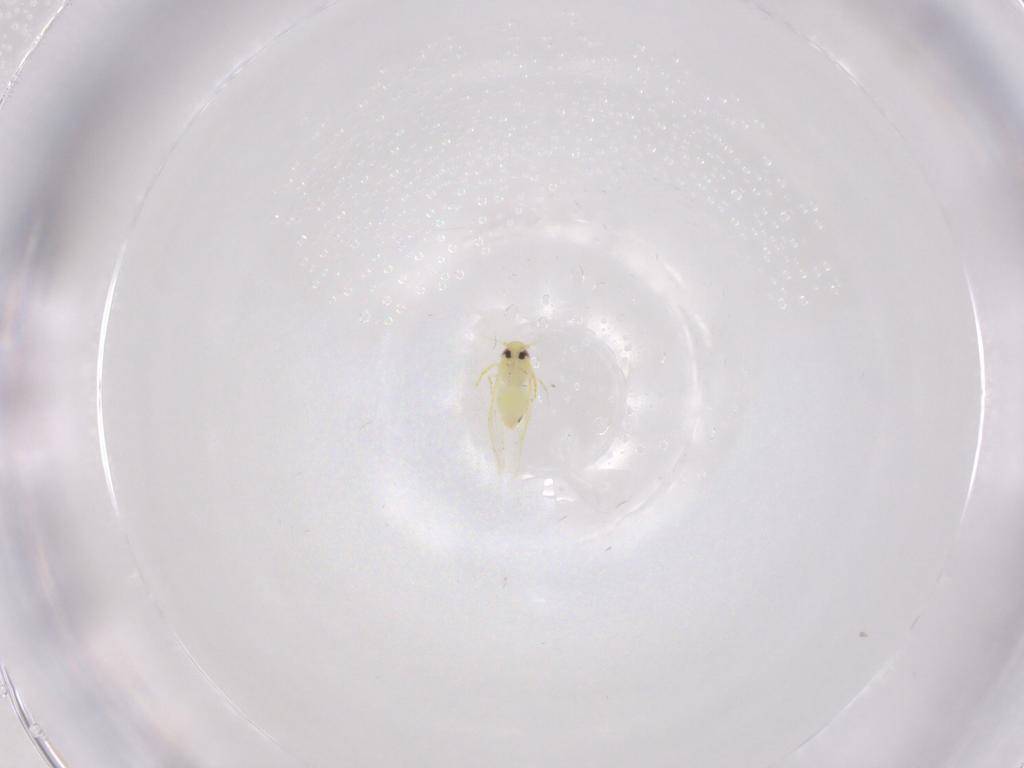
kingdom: Animalia
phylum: Arthropoda
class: Insecta
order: Hemiptera
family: Aleyrodidae
